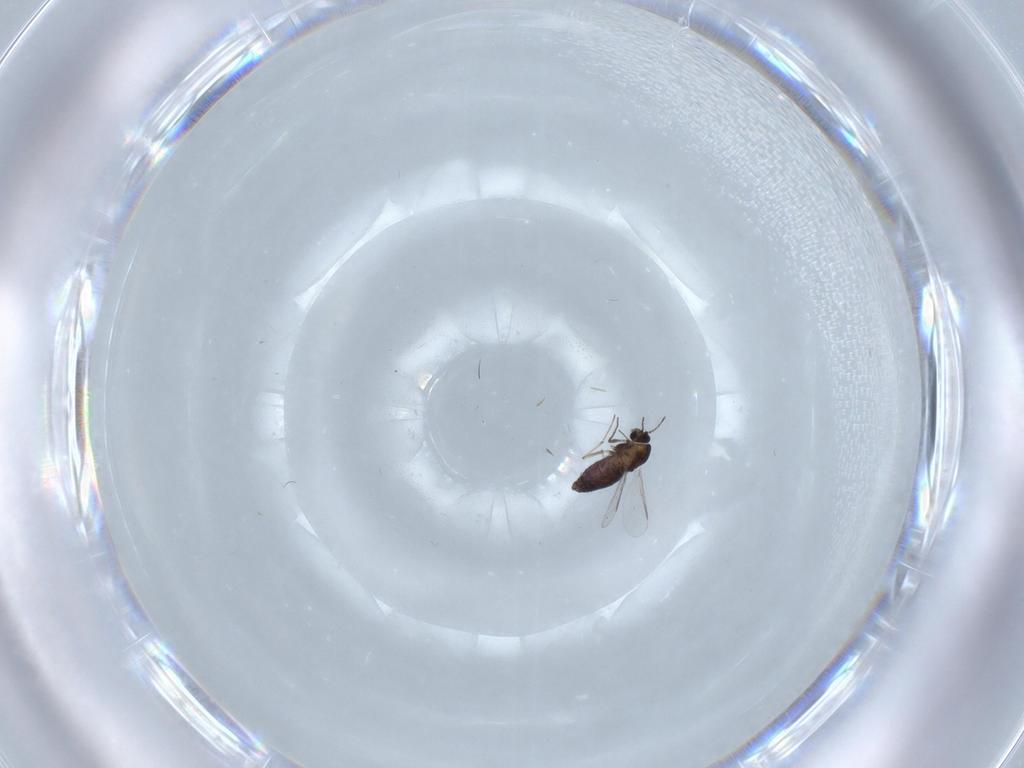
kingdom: Animalia
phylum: Arthropoda
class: Insecta
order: Diptera
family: Chironomidae
